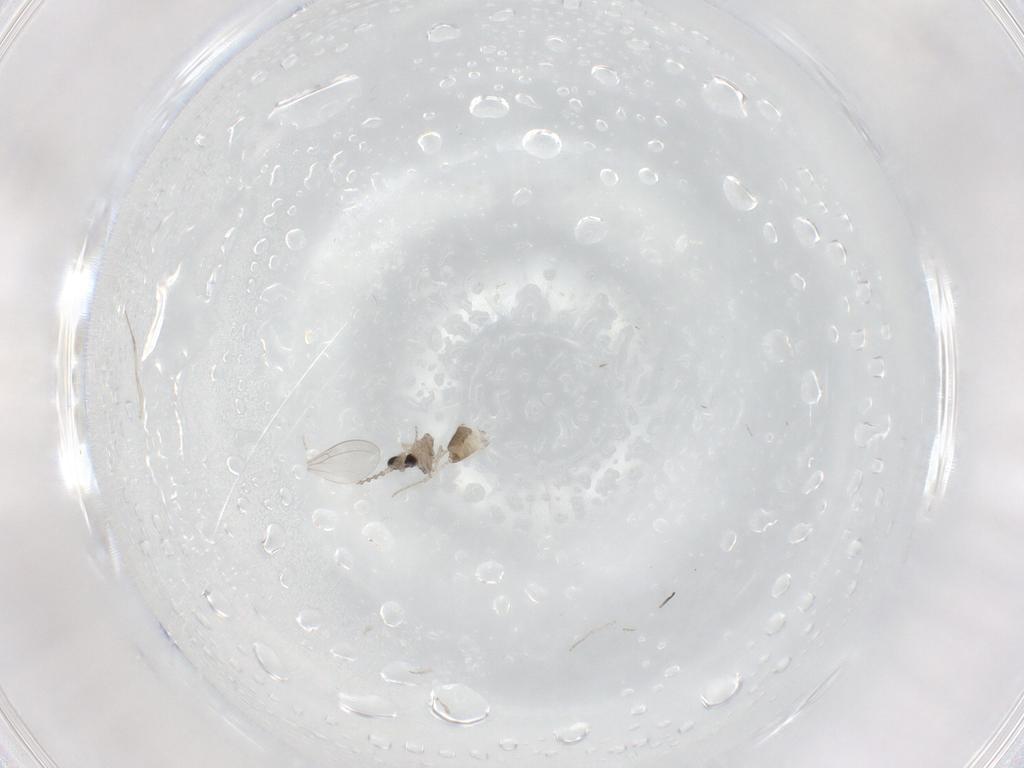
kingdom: Animalia
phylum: Arthropoda
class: Insecta
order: Diptera
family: Cecidomyiidae
